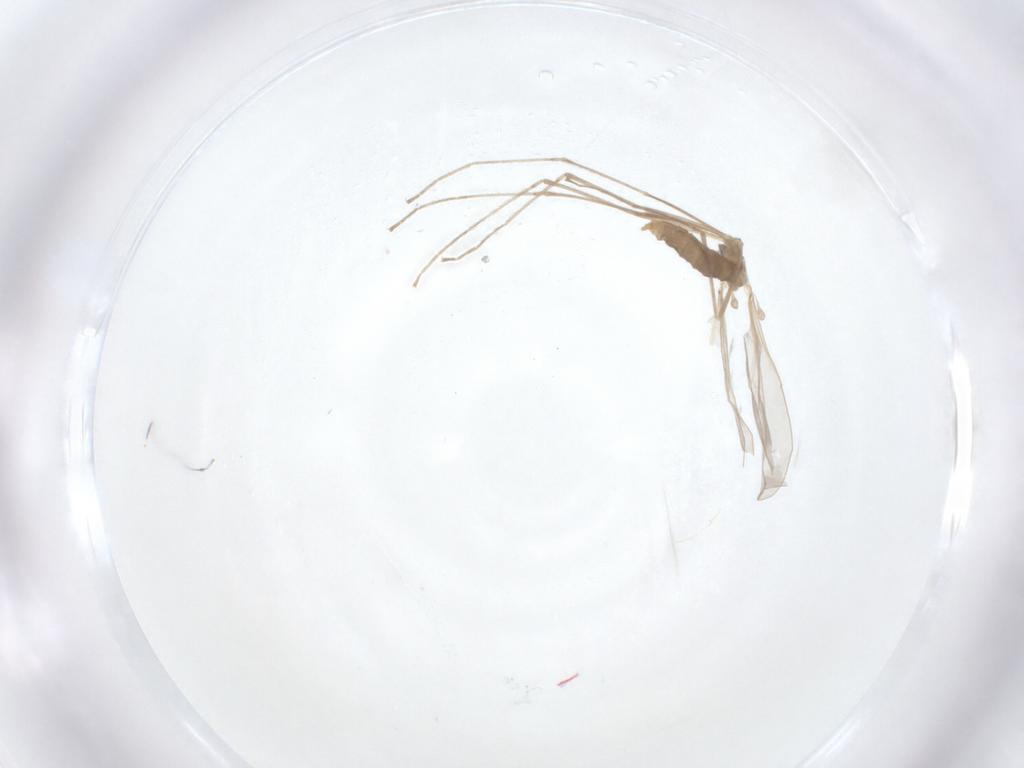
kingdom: Animalia
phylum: Arthropoda
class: Insecta
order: Diptera
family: Cecidomyiidae
